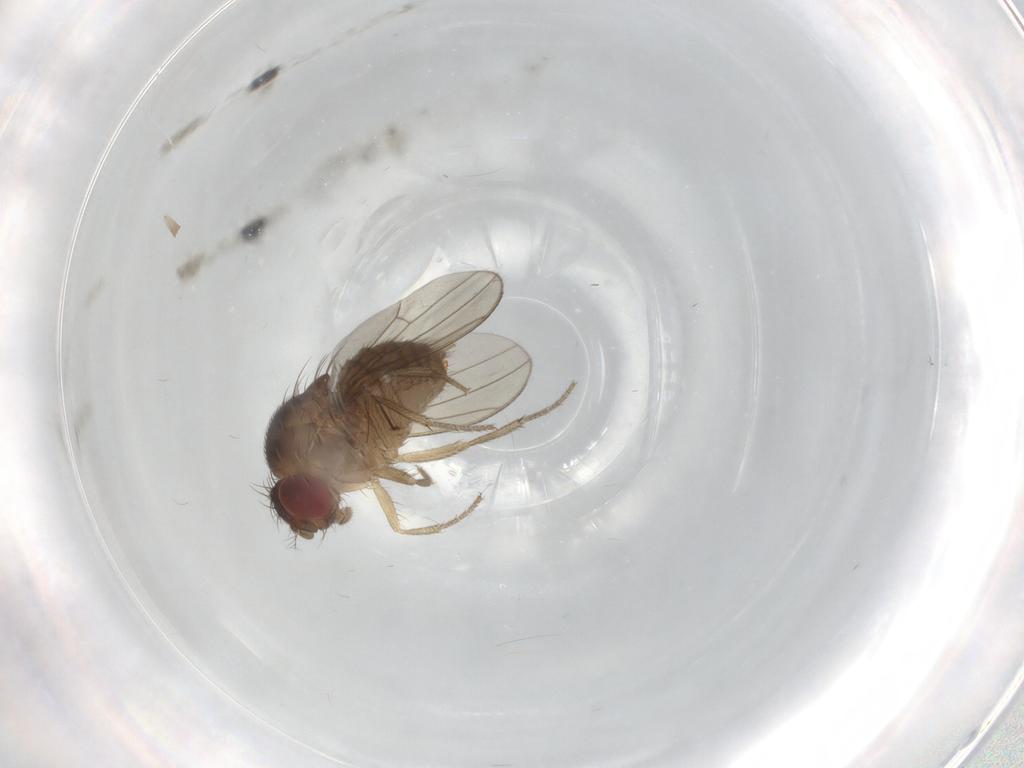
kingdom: Animalia
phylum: Arthropoda
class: Insecta
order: Diptera
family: Drosophilidae
